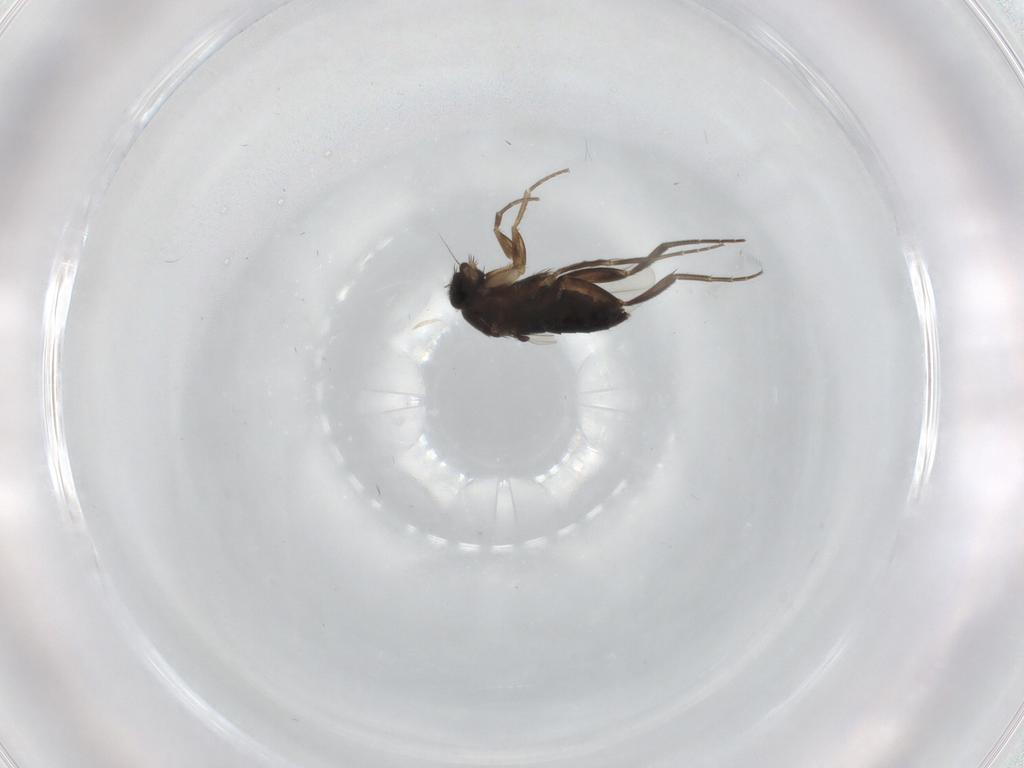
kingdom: Animalia
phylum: Arthropoda
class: Insecta
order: Diptera
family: Phoridae
